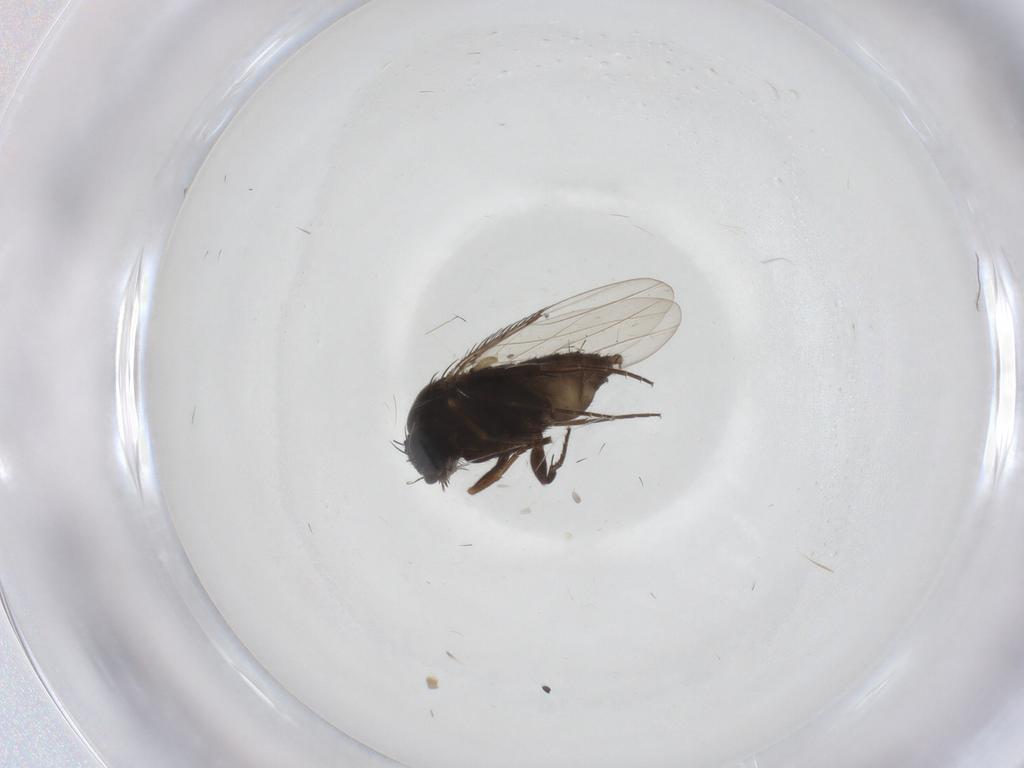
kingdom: Animalia
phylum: Arthropoda
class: Insecta
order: Diptera
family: Phoridae
